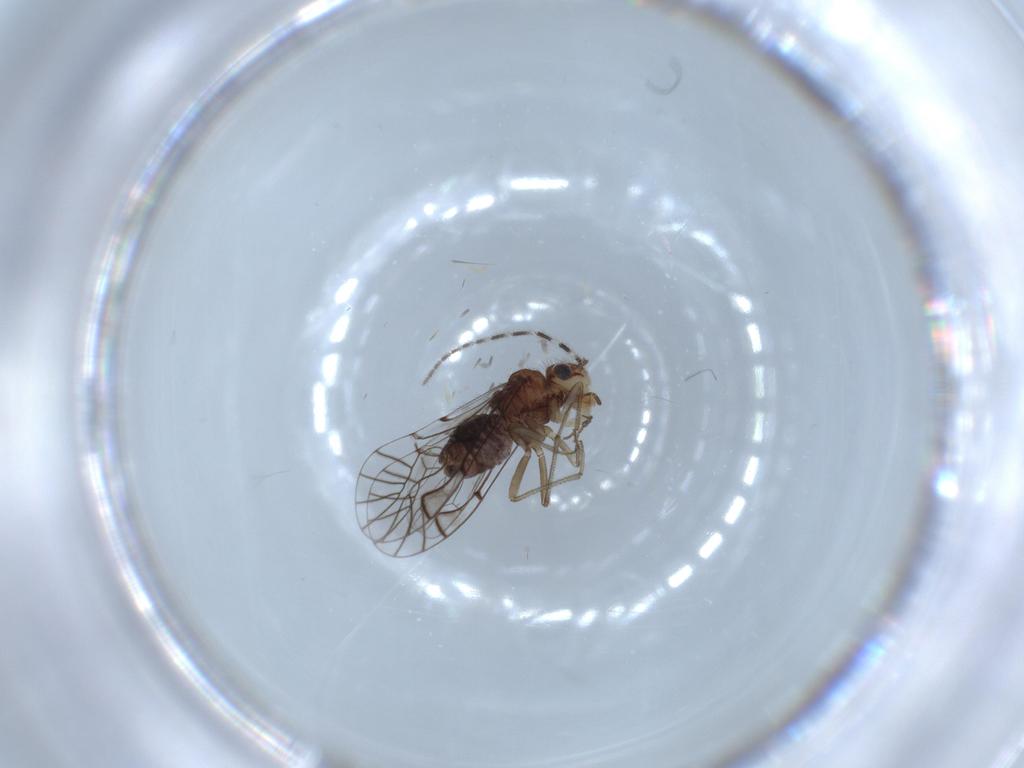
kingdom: Animalia
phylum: Arthropoda
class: Insecta
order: Psocodea
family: Amphipsocidae
